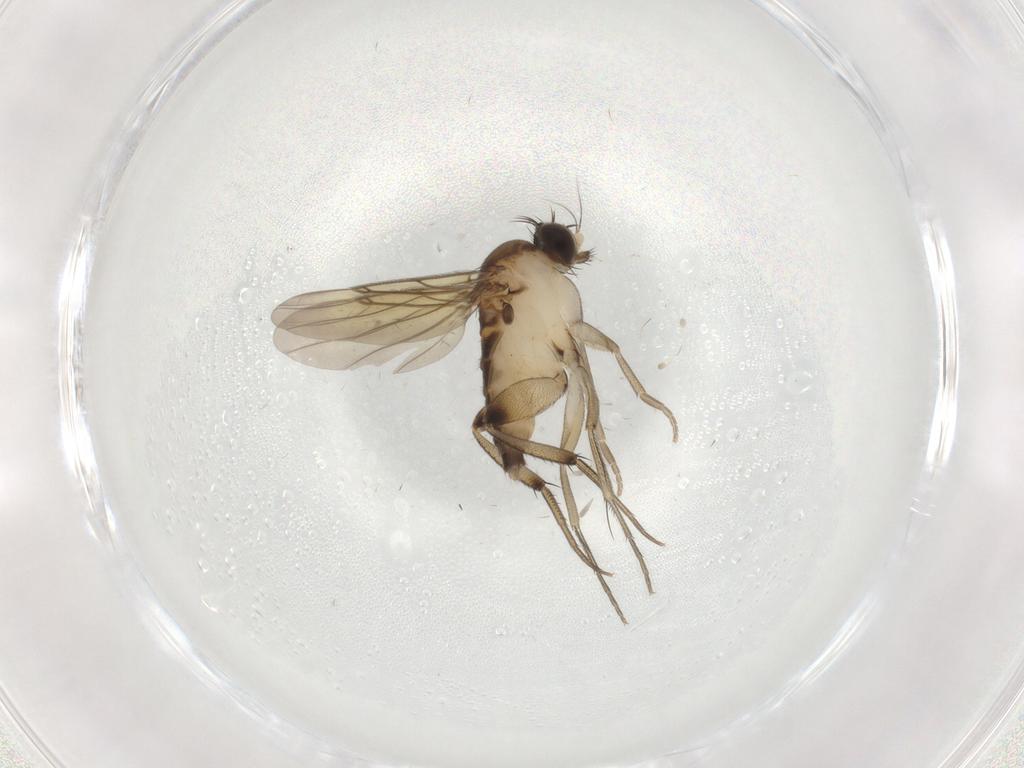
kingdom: Animalia
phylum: Arthropoda
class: Insecta
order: Diptera
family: Phoridae
